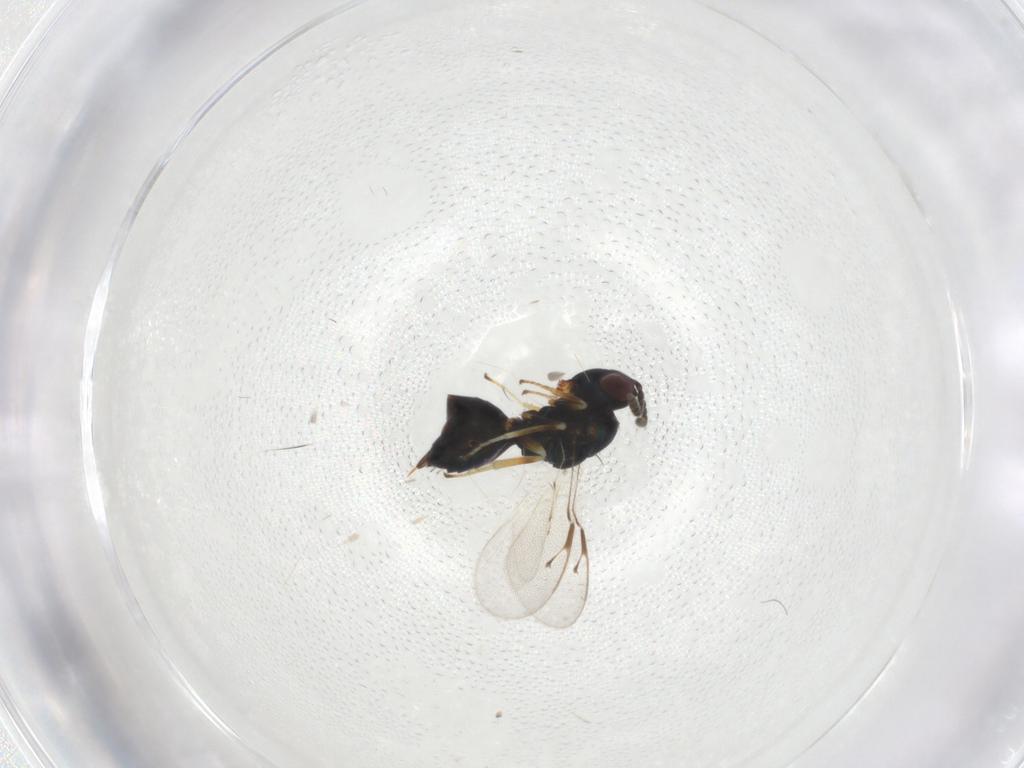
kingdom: Animalia
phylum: Arthropoda
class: Insecta
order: Hymenoptera
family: Pteromalidae
